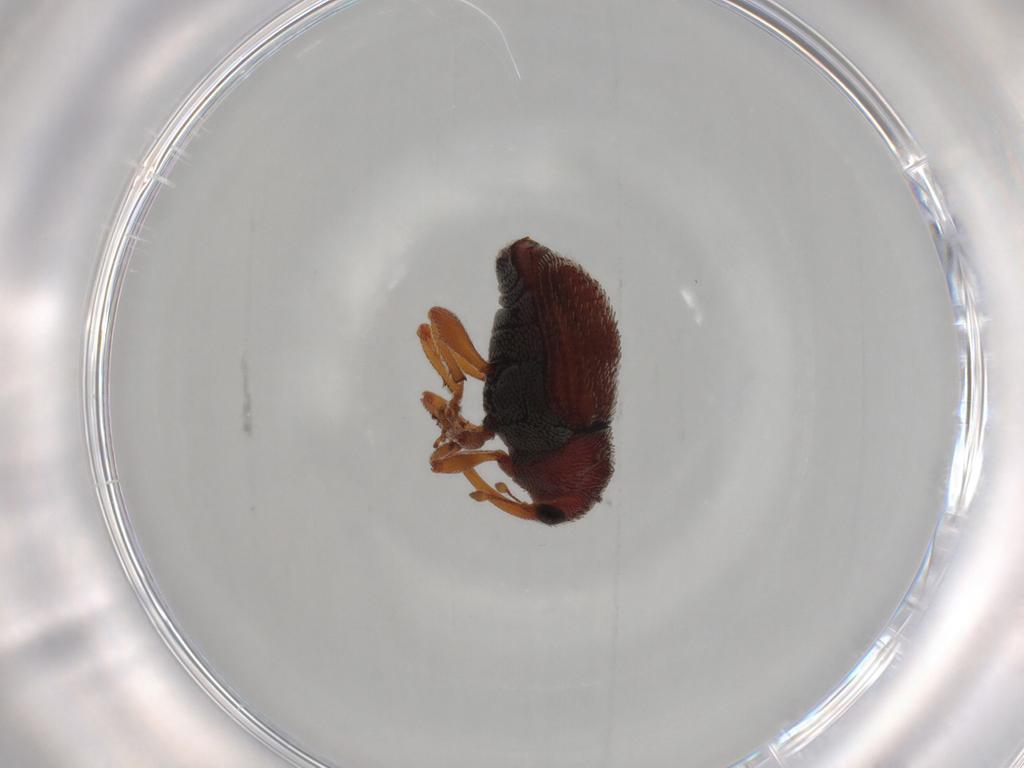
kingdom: Animalia
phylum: Arthropoda
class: Insecta
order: Coleoptera
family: Curculionidae
